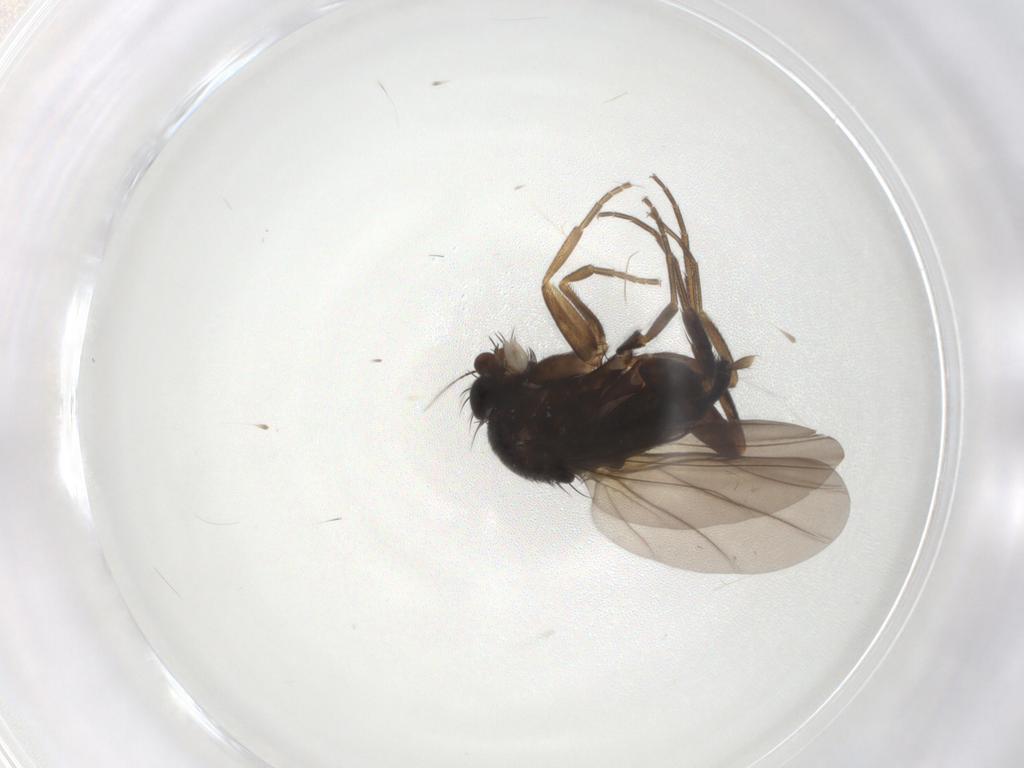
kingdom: Animalia
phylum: Arthropoda
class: Insecta
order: Diptera
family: Phoridae
